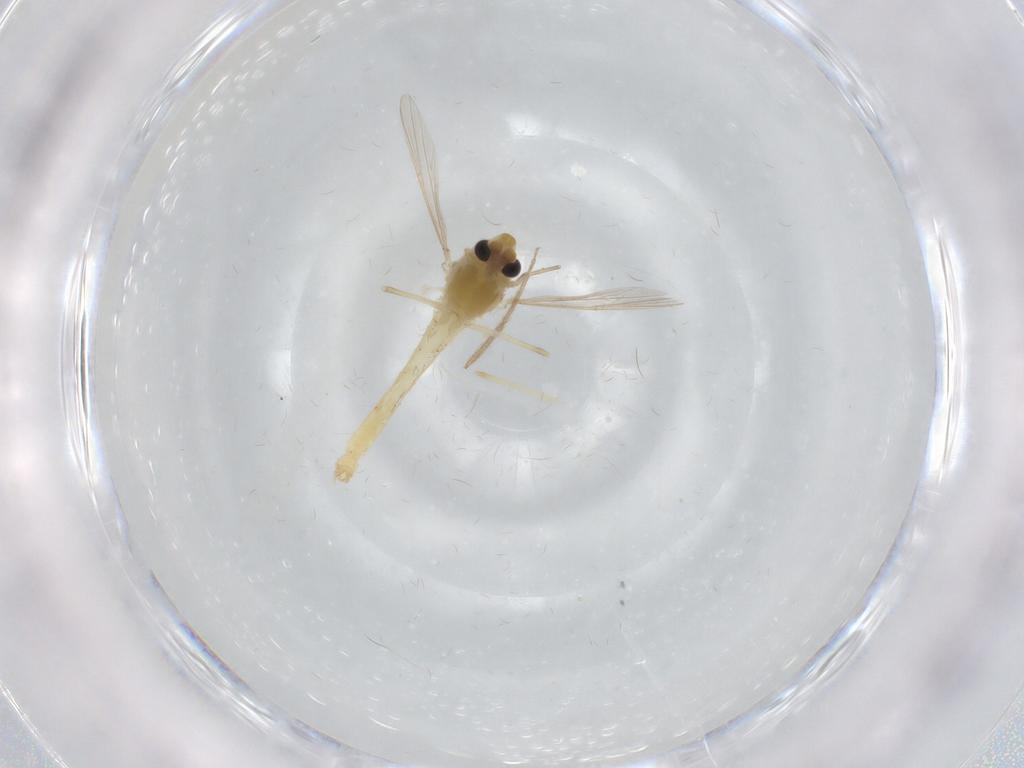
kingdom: Animalia
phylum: Arthropoda
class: Insecta
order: Diptera
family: Chironomidae
